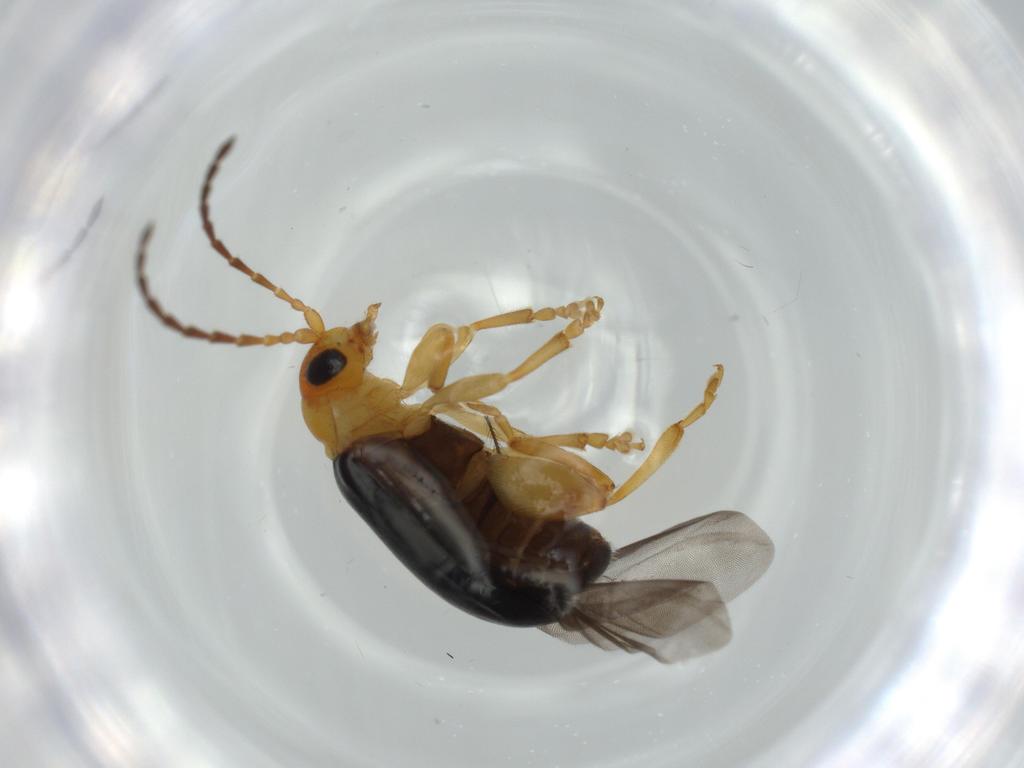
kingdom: Animalia
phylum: Arthropoda
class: Insecta
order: Coleoptera
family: Chrysomelidae
